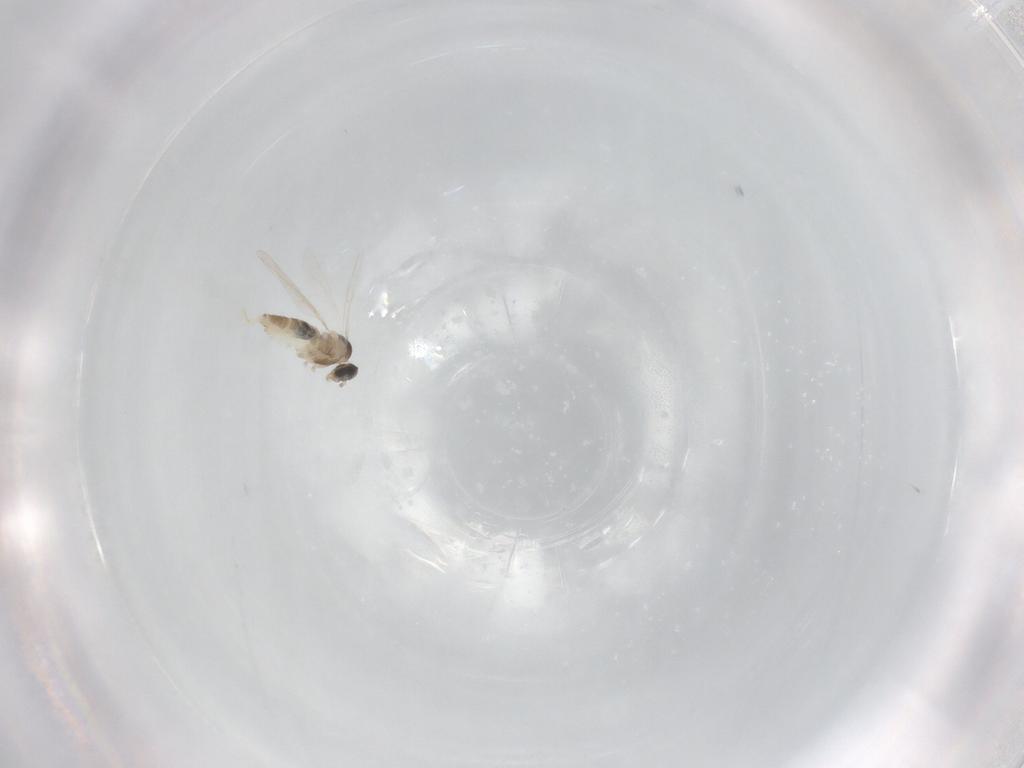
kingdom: Animalia
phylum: Arthropoda
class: Insecta
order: Diptera
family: Cecidomyiidae
